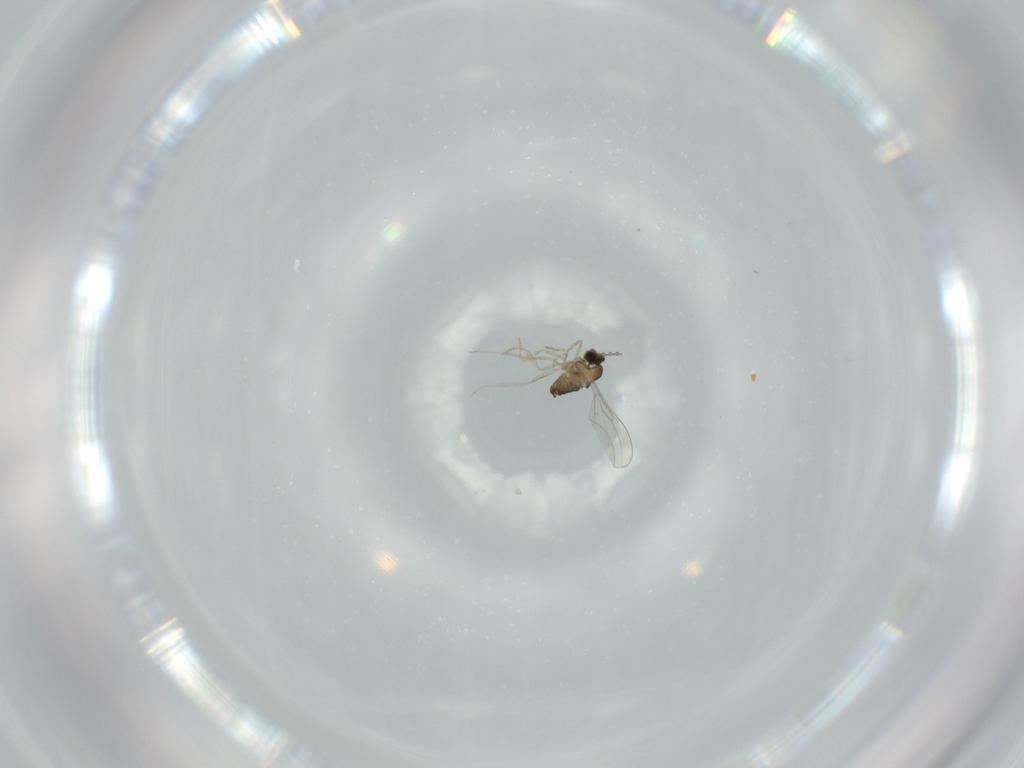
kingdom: Animalia
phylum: Arthropoda
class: Insecta
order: Diptera
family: Cecidomyiidae
